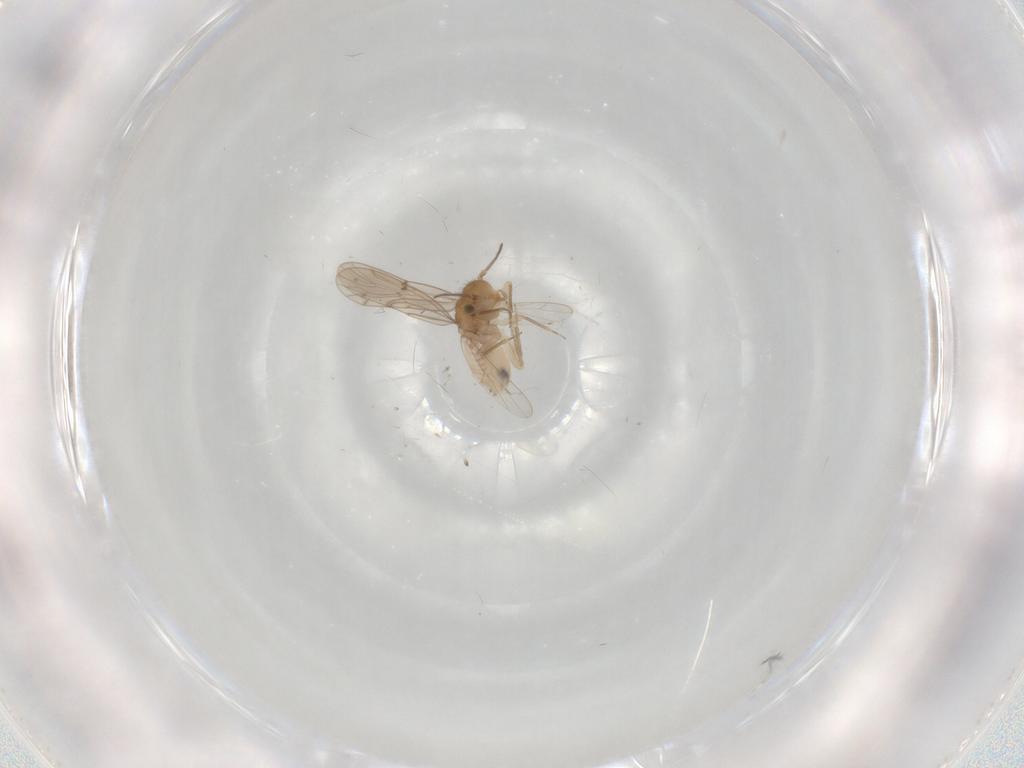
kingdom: Animalia
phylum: Arthropoda
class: Insecta
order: Psocodea
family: Ectopsocidae
